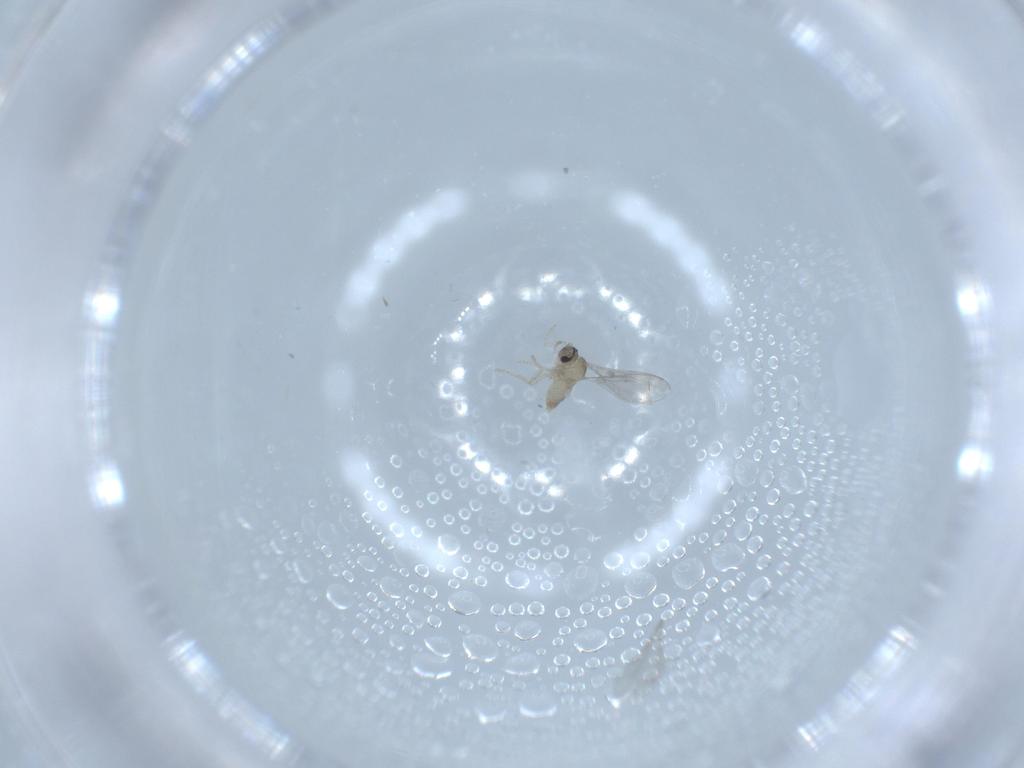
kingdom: Animalia
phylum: Arthropoda
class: Insecta
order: Diptera
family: Cecidomyiidae
